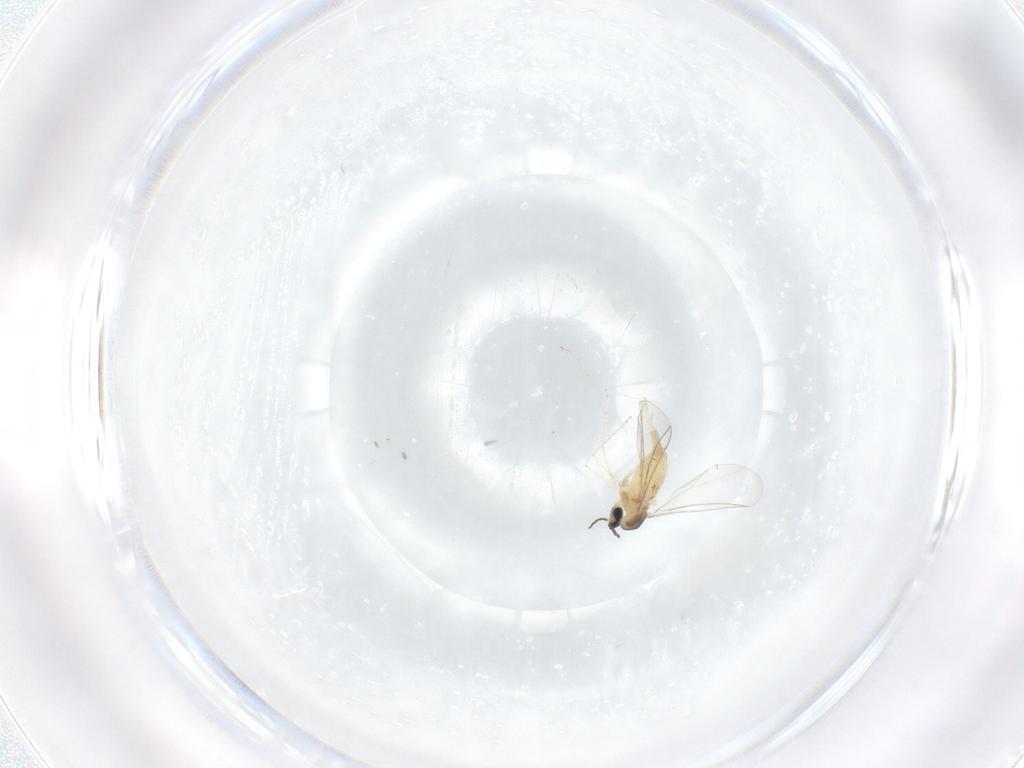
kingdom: Animalia
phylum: Arthropoda
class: Insecta
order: Diptera
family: Cecidomyiidae
